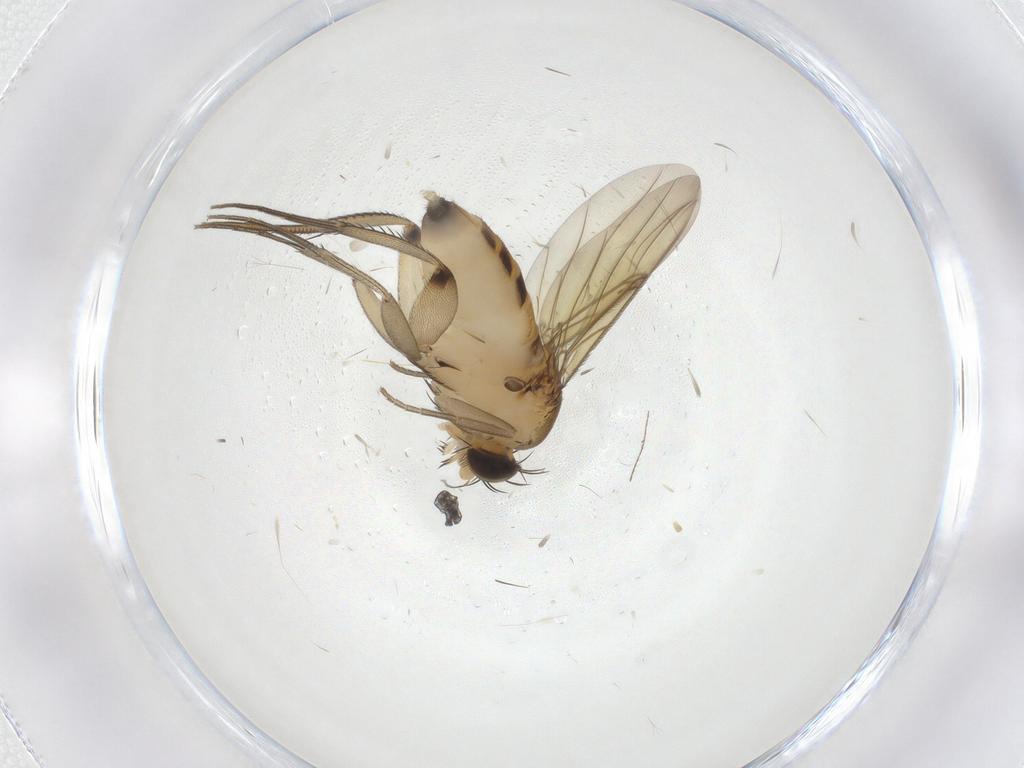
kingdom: Animalia
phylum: Arthropoda
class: Insecta
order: Diptera
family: Phoridae
